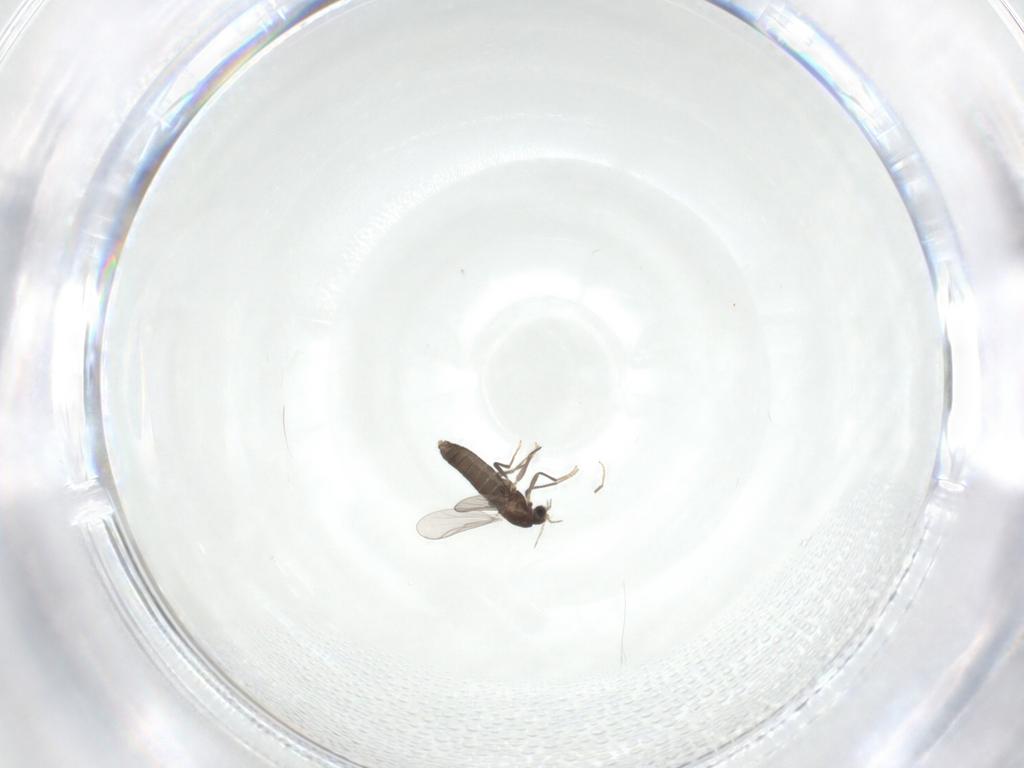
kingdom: Animalia
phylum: Arthropoda
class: Insecta
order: Diptera
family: Chironomidae
